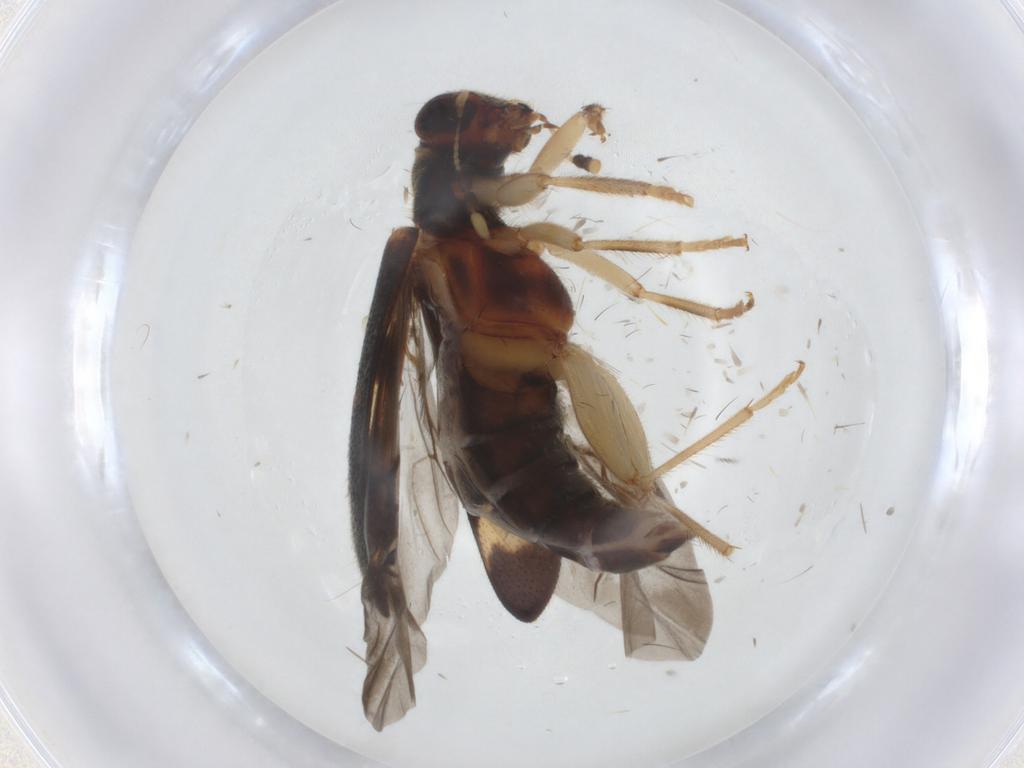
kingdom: Animalia
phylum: Arthropoda
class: Insecta
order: Coleoptera
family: Cleridae
